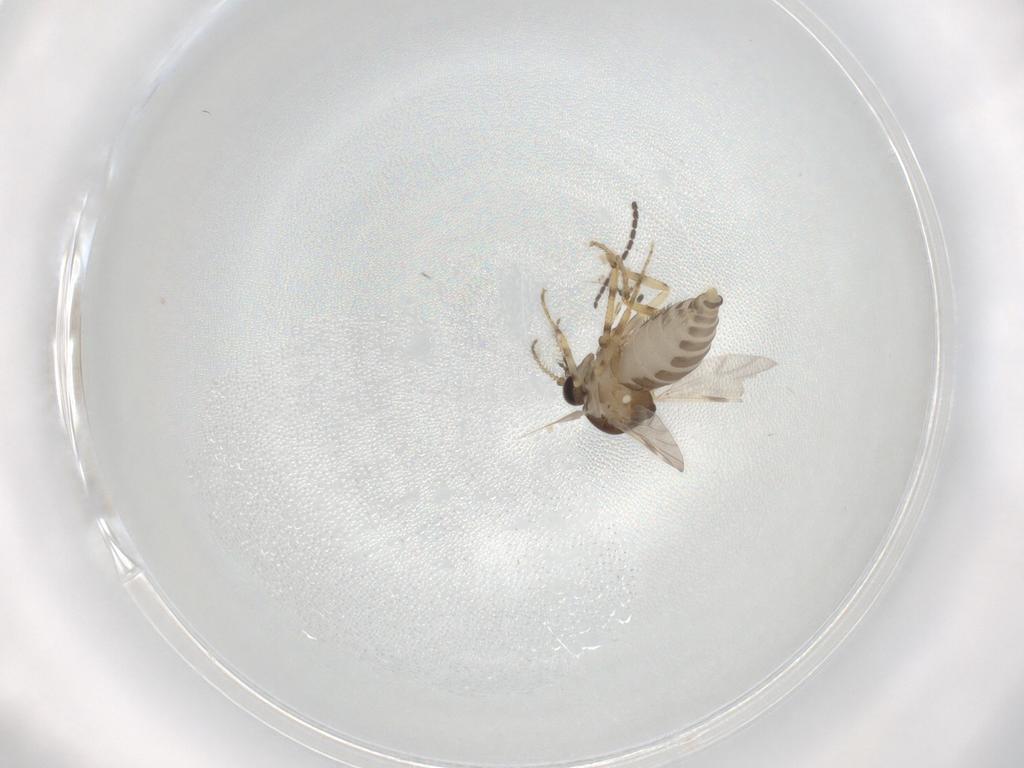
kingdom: Animalia
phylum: Arthropoda
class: Insecta
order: Diptera
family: Ceratopogonidae
